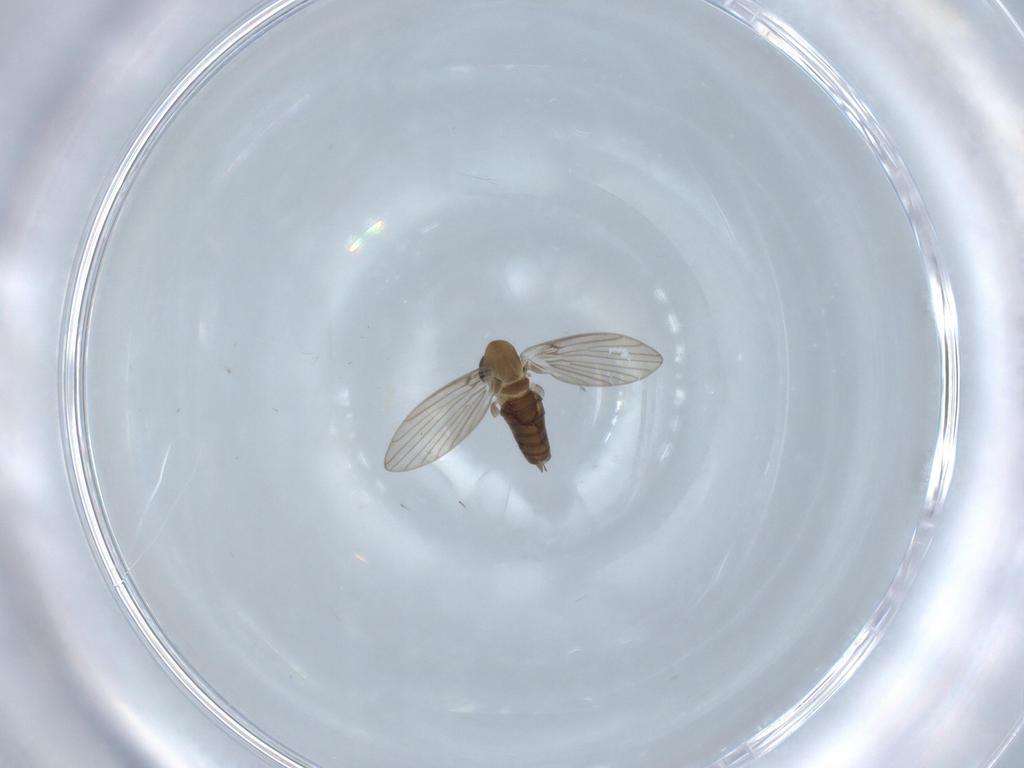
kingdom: Animalia
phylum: Arthropoda
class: Insecta
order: Diptera
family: Psychodidae
